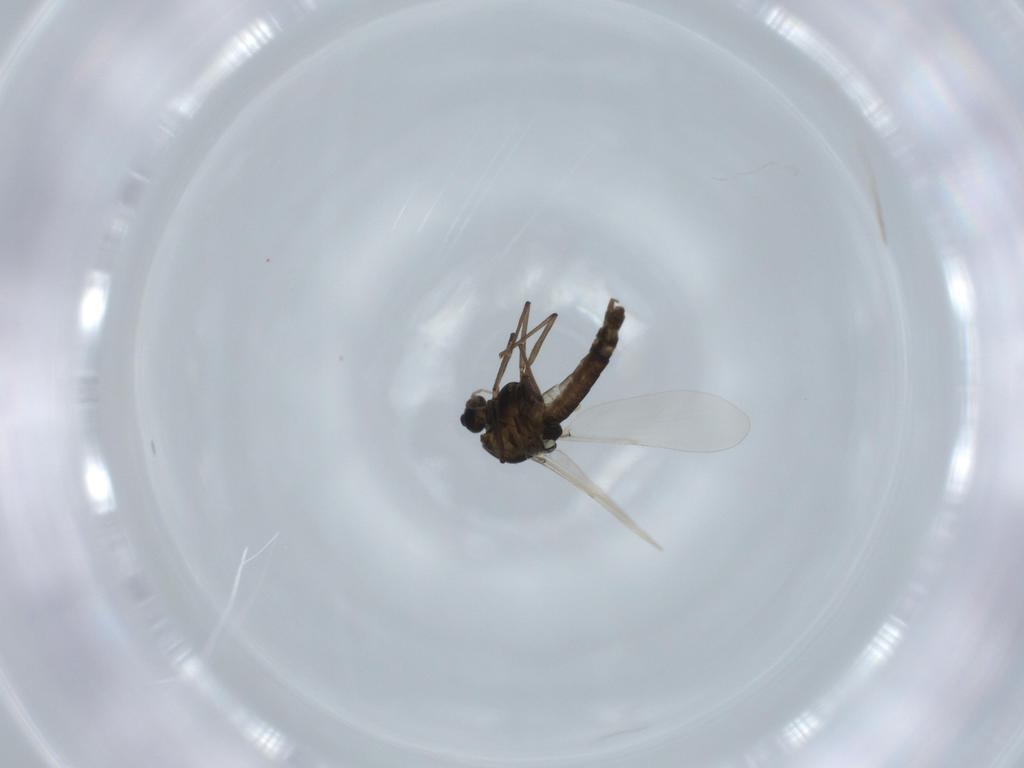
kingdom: Animalia
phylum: Arthropoda
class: Insecta
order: Diptera
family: Chironomidae
